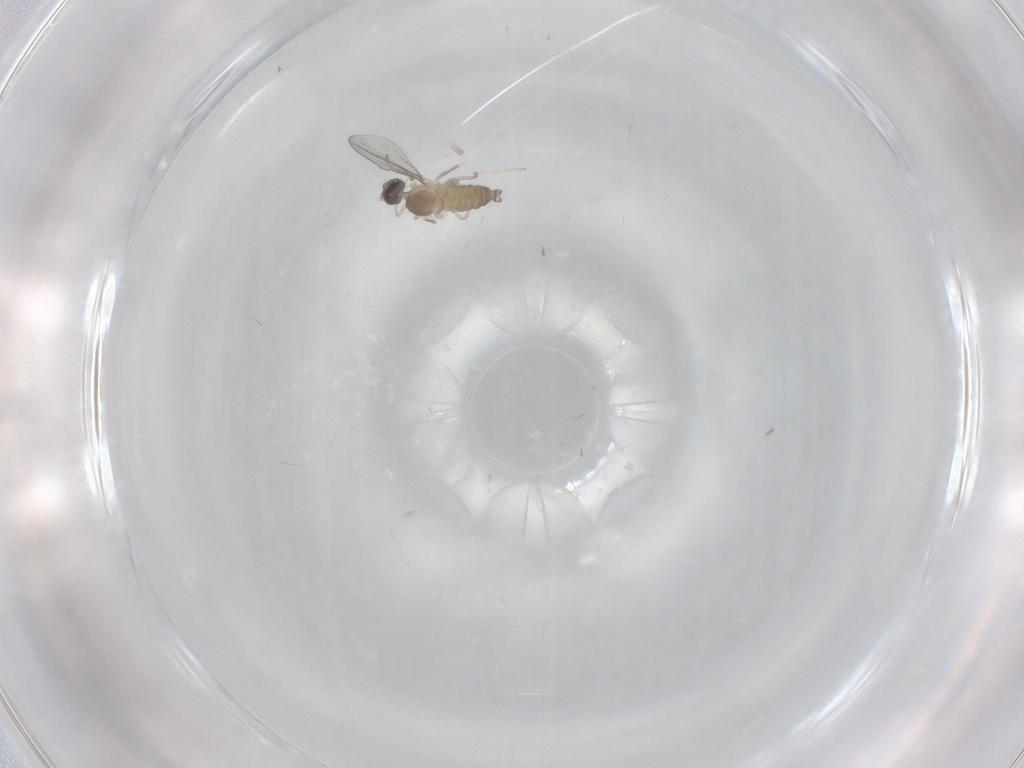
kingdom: Animalia
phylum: Arthropoda
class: Insecta
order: Diptera
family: Cecidomyiidae
